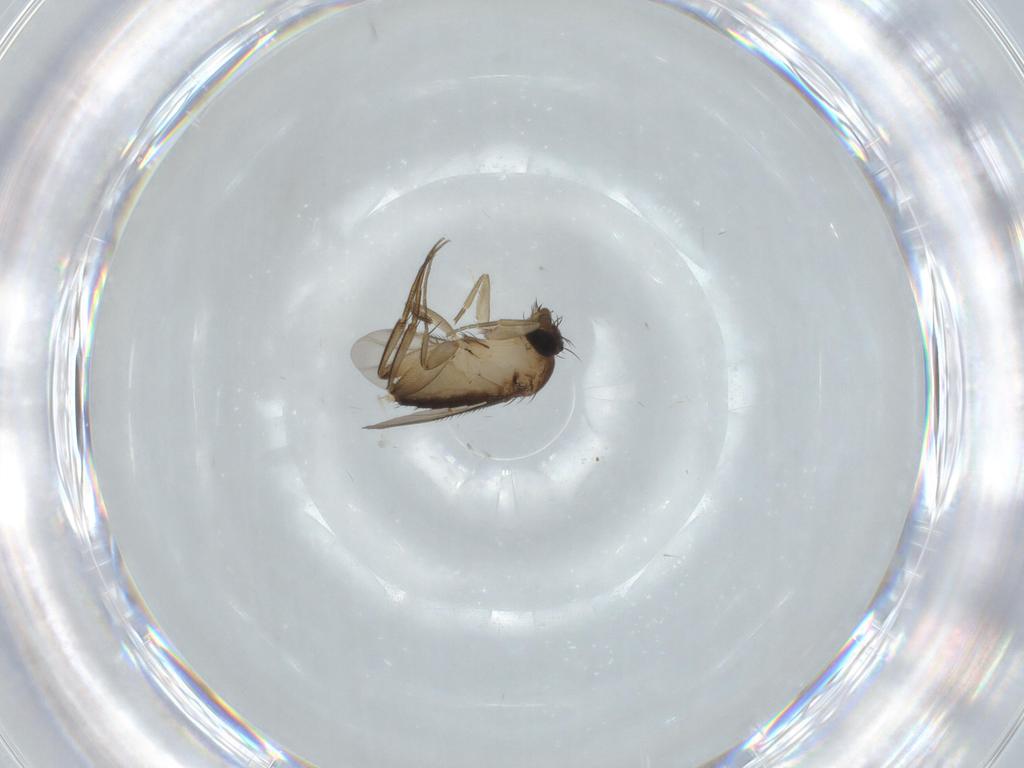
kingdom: Animalia
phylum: Arthropoda
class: Insecta
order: Diptera
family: Phoridae
